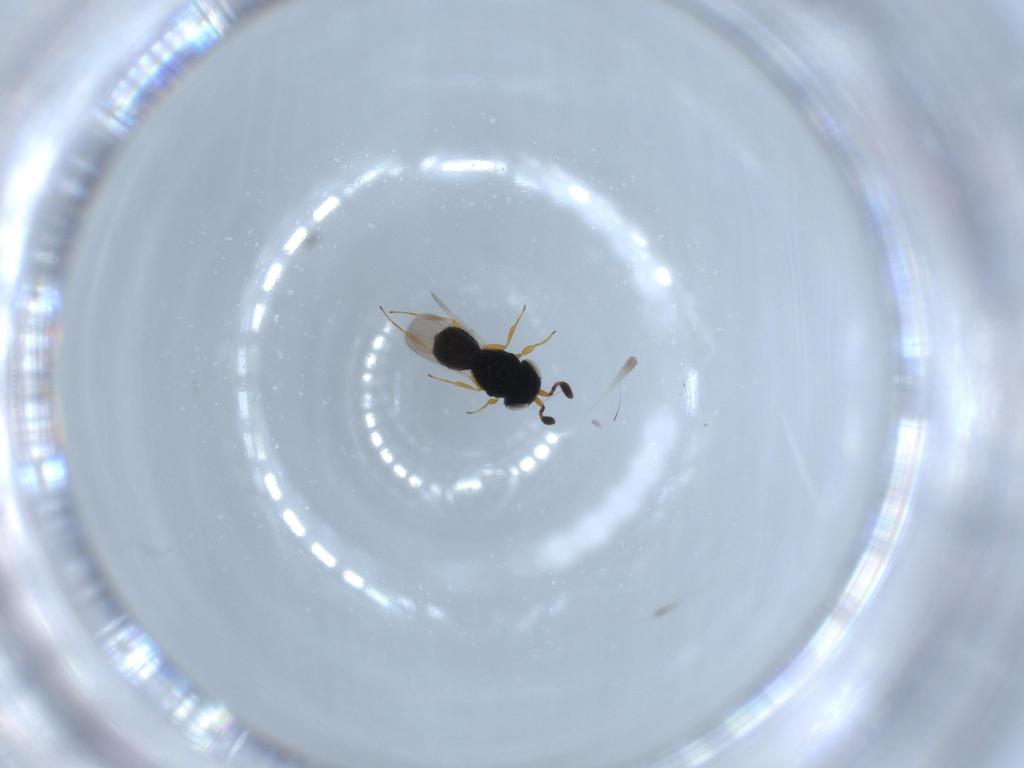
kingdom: Animalia
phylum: Arthropoda
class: Insecta
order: Hymenoptera
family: Scelionidae
